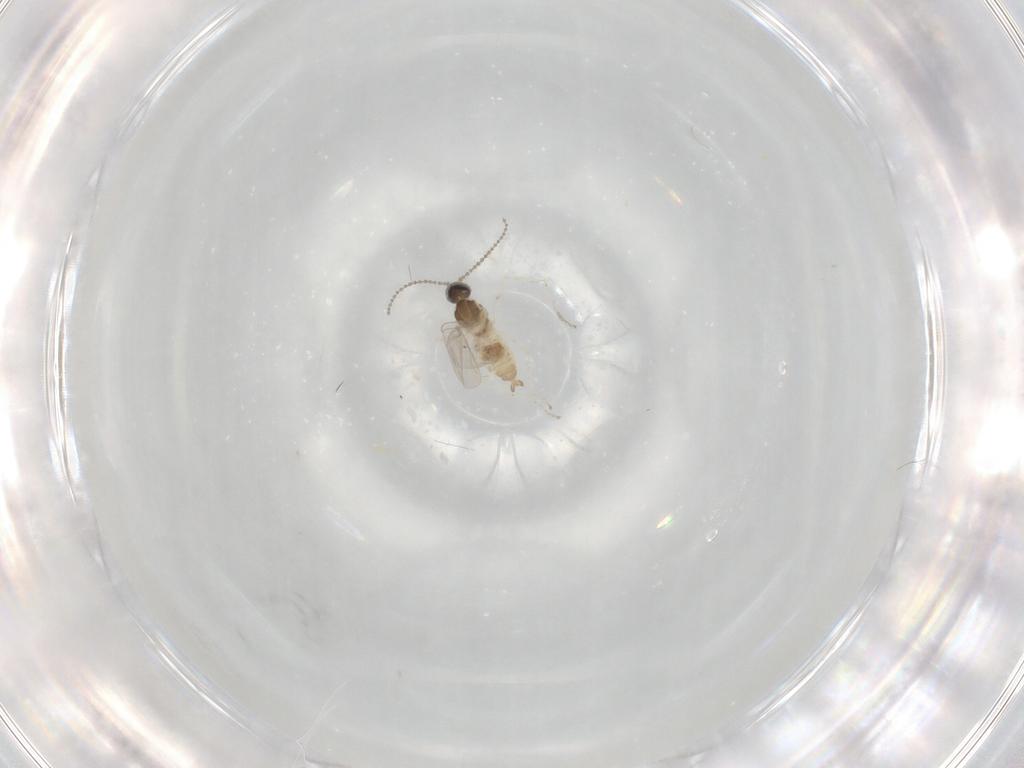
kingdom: Animalia
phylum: Arthropoda
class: Insecta
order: Diptera
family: Cecidomyiidae
